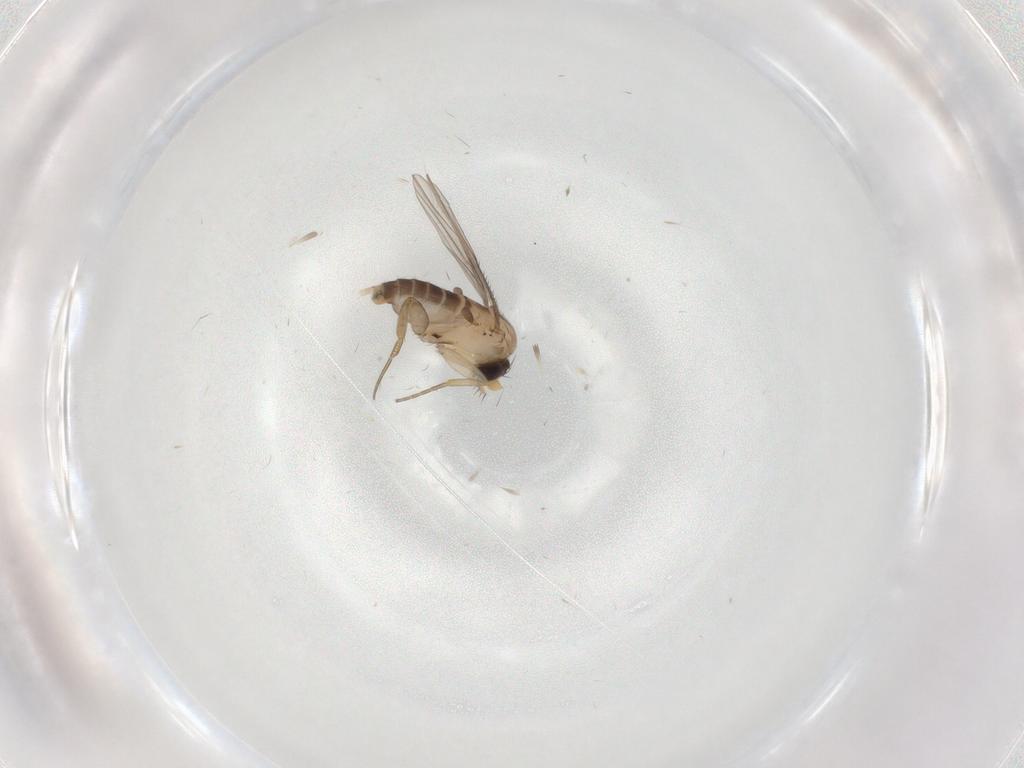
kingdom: Animalia
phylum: Arthropoda
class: Insecta
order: Diptera
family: Phoridae
